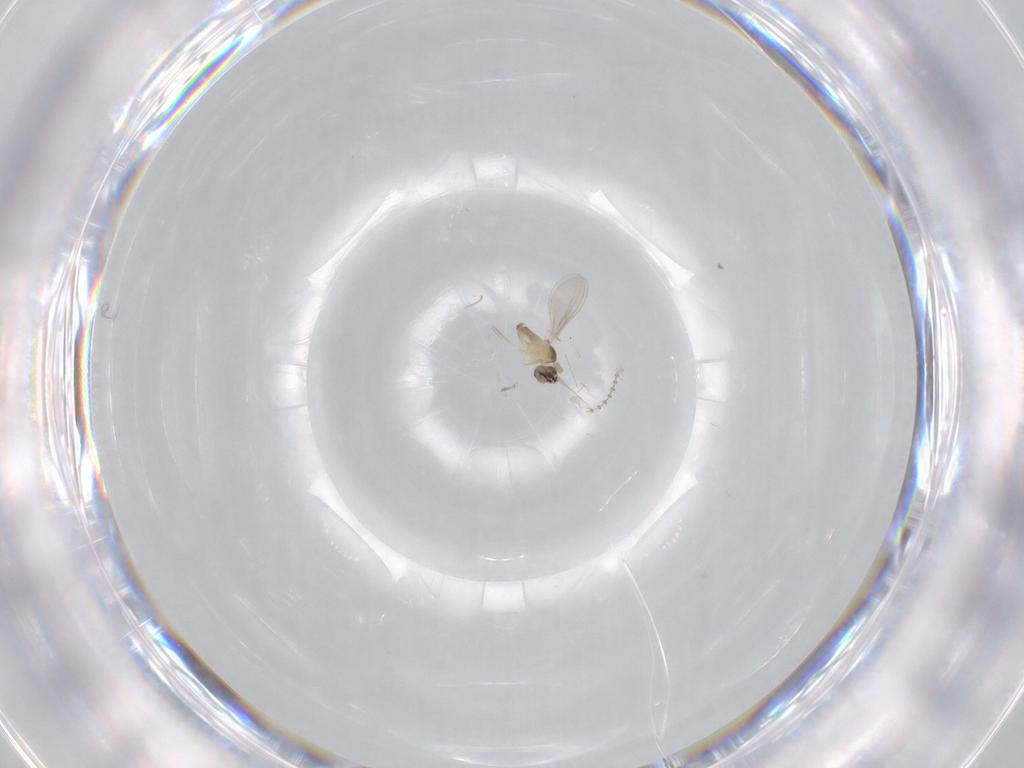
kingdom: Animalia
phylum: Arthropoda
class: Insecta
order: Diptera
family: Cecidomyiidae
